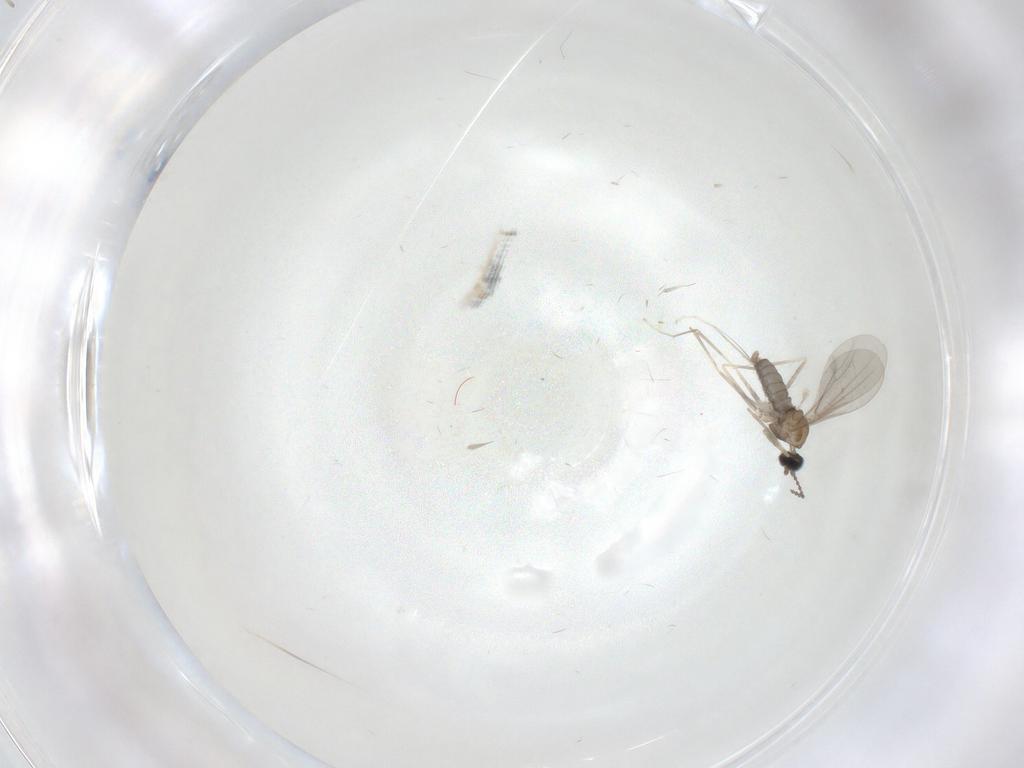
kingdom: Animalia
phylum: Arthropoda
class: Insecta
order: Diptera
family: Cecidomyiidae
